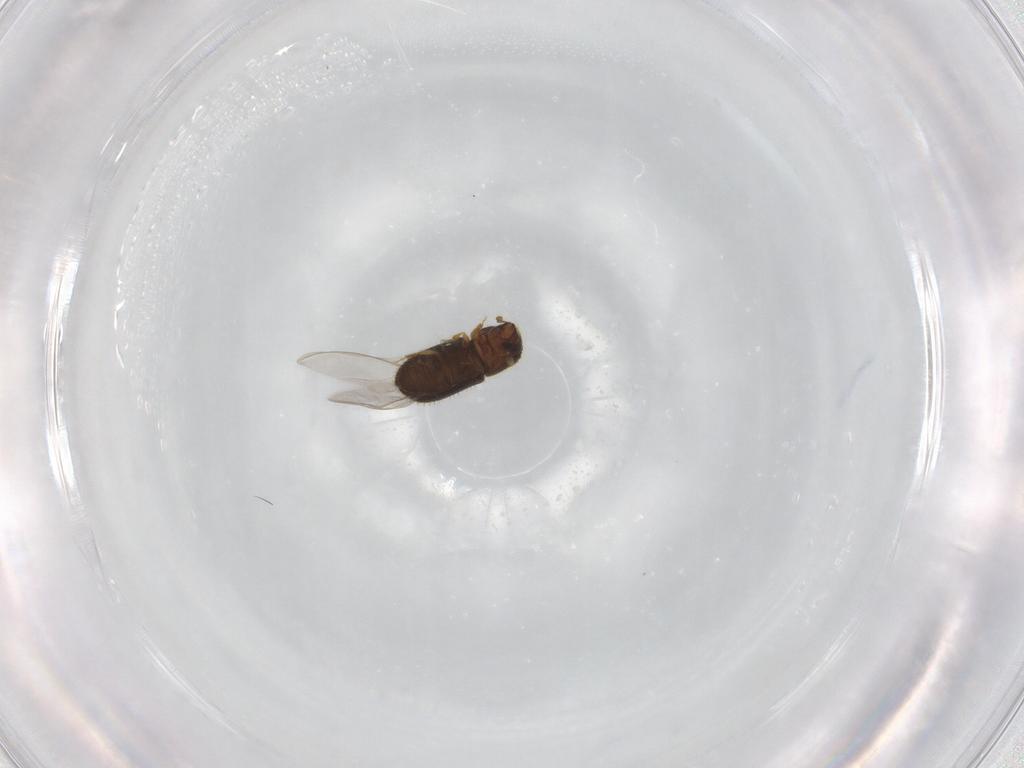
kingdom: Animalia
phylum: Arthropoda
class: Insecta
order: Coleoptera
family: Curculionidae
